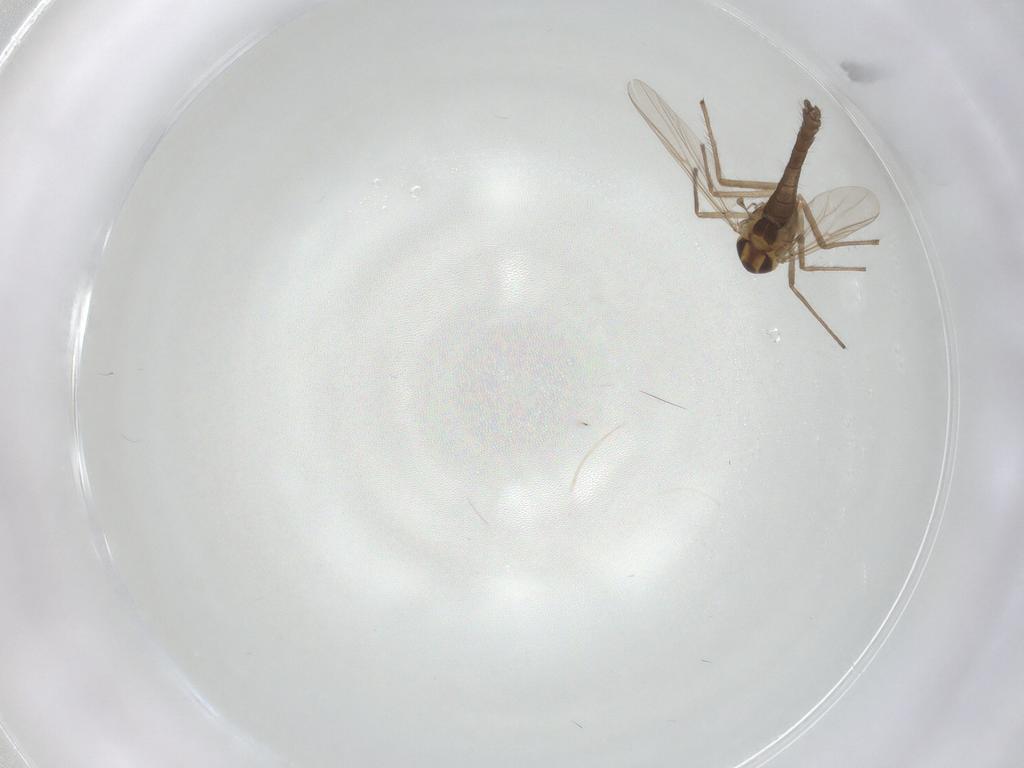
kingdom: Animalia
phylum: Arthropoda
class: Insecta
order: Diptera
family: Chironomidae
